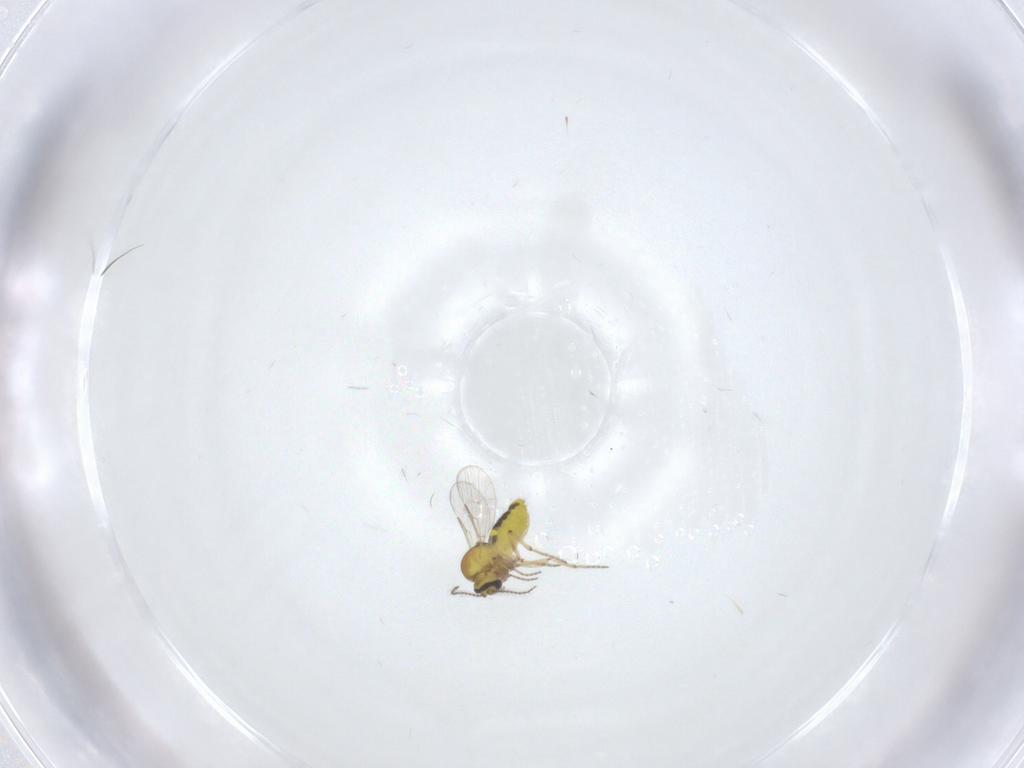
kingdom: Animalia
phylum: Arthropoda
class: Insecta
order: Diptera
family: Ceratopogonidae
